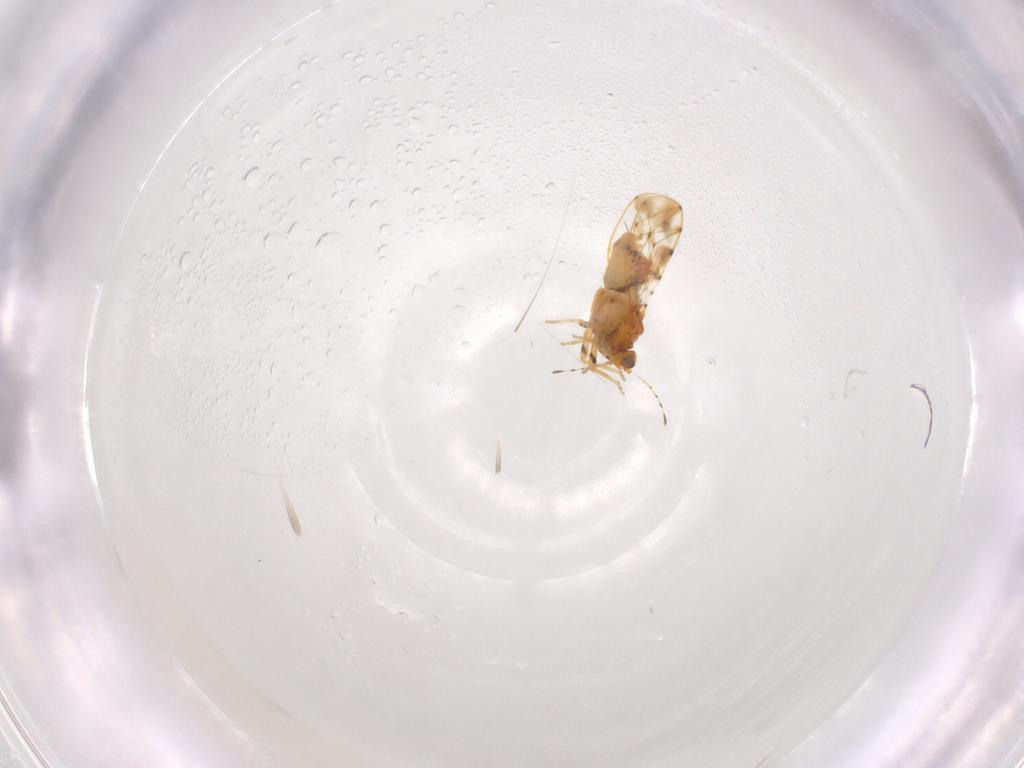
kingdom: Animalia
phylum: Arthropoda
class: Insecta
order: Hemiptera
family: Psylloidea_incertae_sedis
